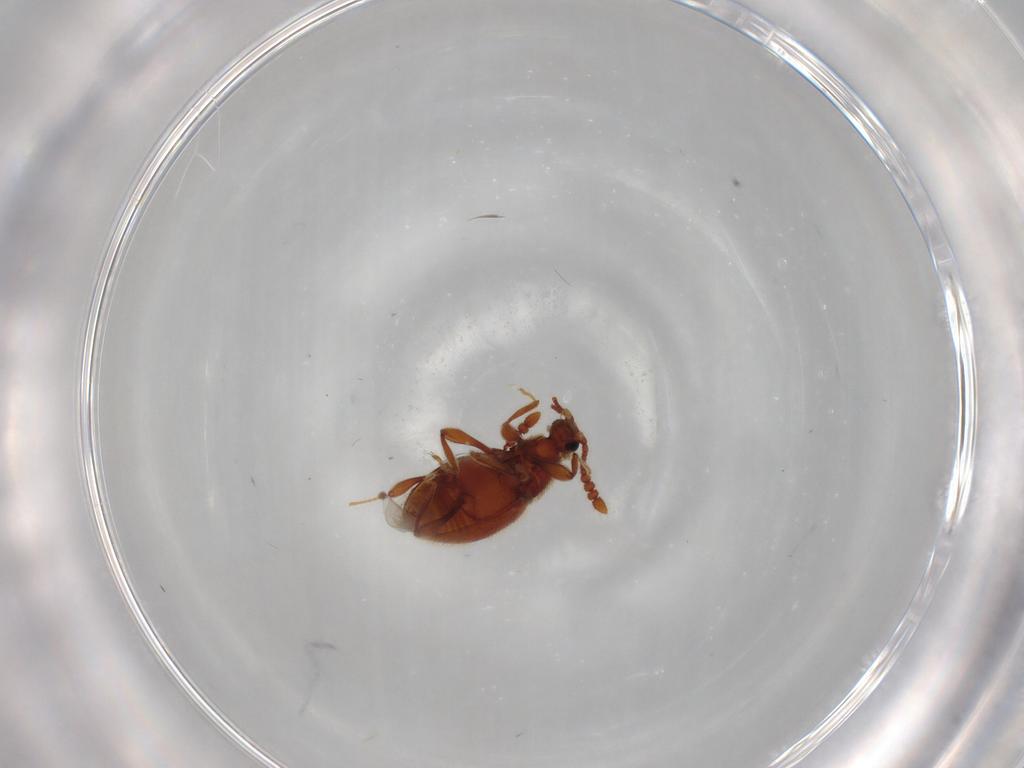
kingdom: Animalia
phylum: Arthropoda
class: Insecta
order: Coleoptera
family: Staphylinidae
